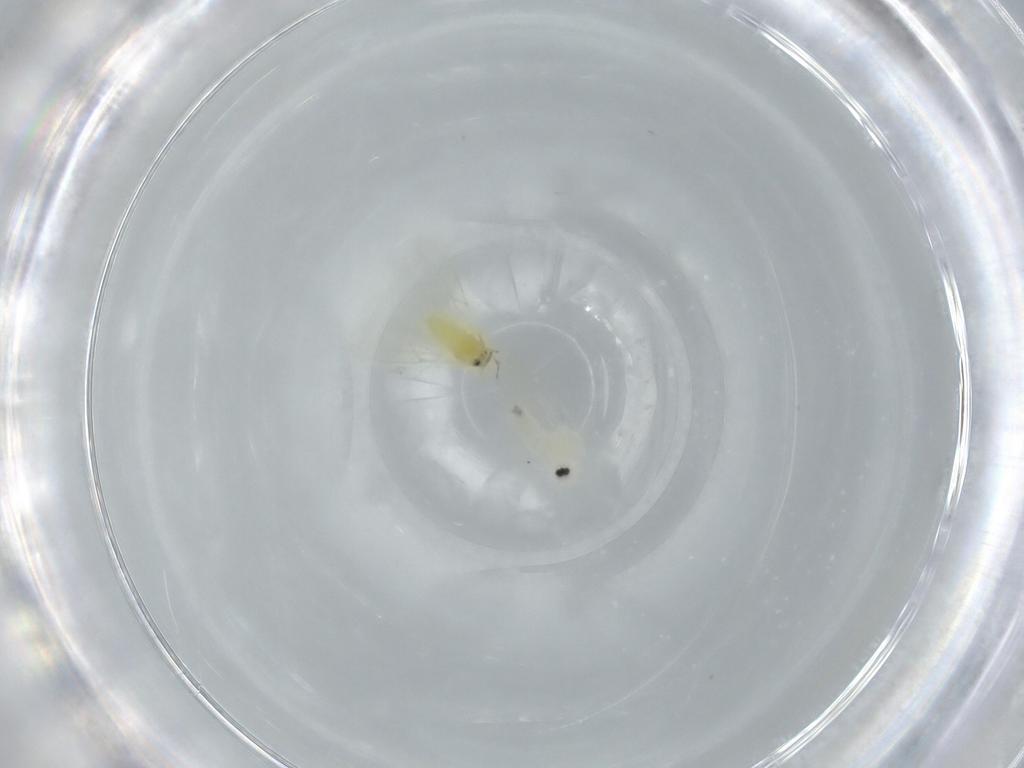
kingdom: Animalia
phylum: Arthropoda
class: Insecta
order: Hemiptera
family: Aleyrodidae
